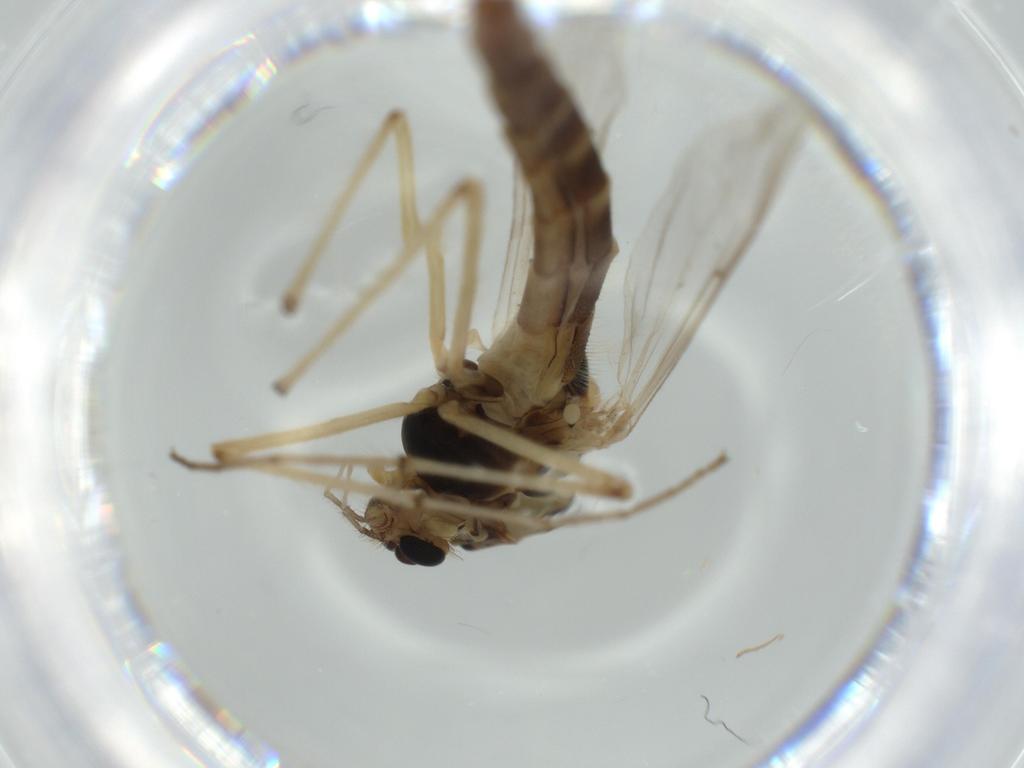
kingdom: Animalia
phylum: Arthropoda
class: Insecta
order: Diptera
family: Chironomidae
